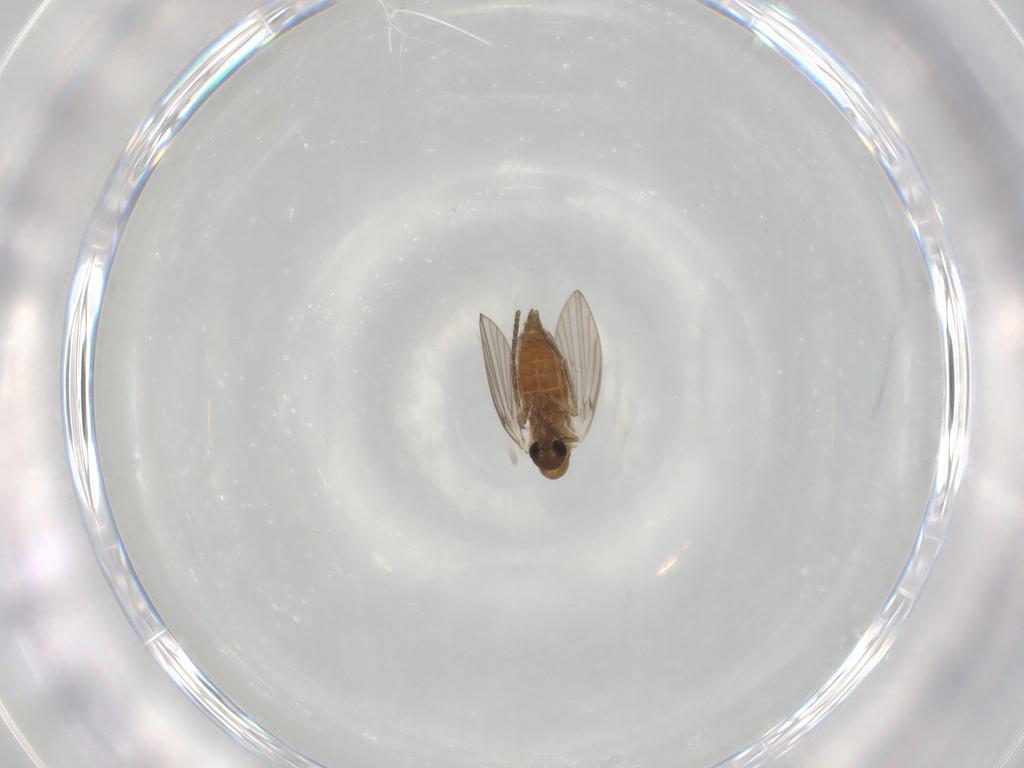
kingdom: Animalia
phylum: Arthropoda
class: Insecta
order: Diptera
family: Psychodidae
